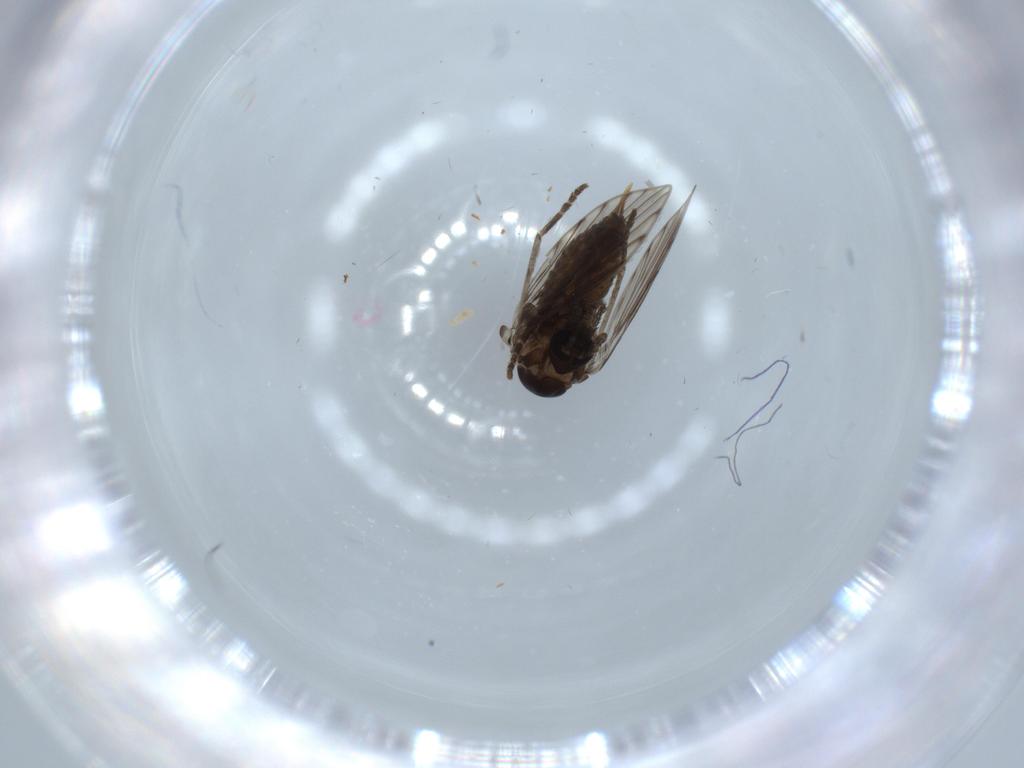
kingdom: Animalia
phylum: Arthropoda
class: Insecta
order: Diptera
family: Psychodidae
